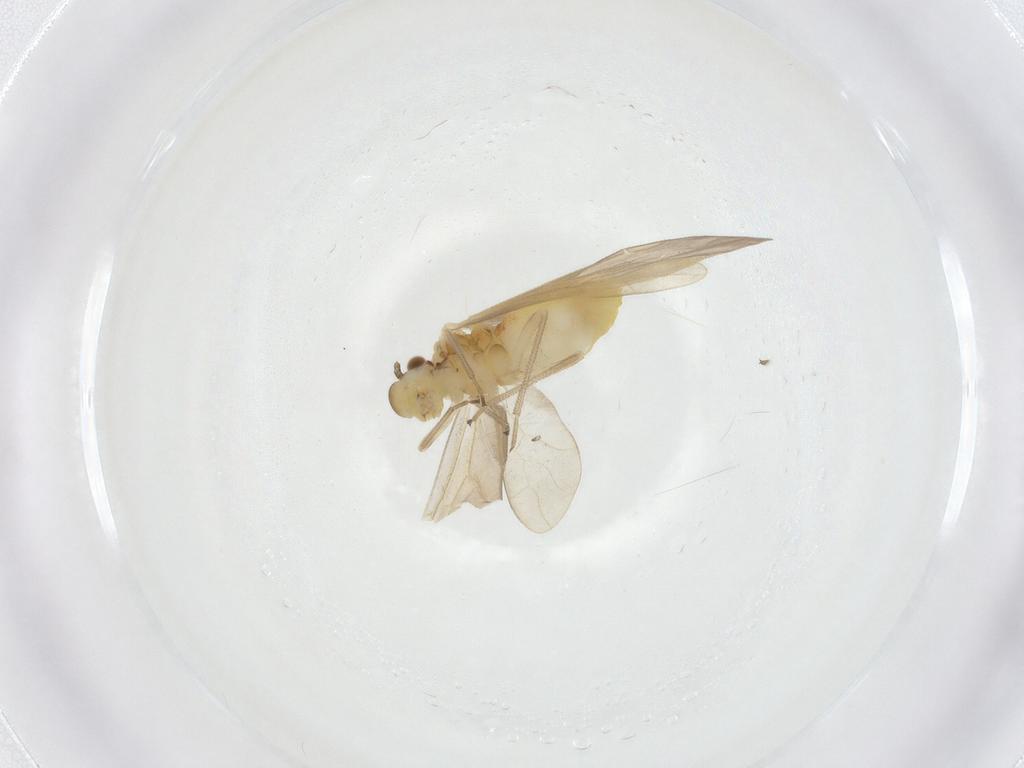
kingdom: Animalia
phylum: Arthropoda
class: Insecta
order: Psocodea
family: Caeciliusidae
